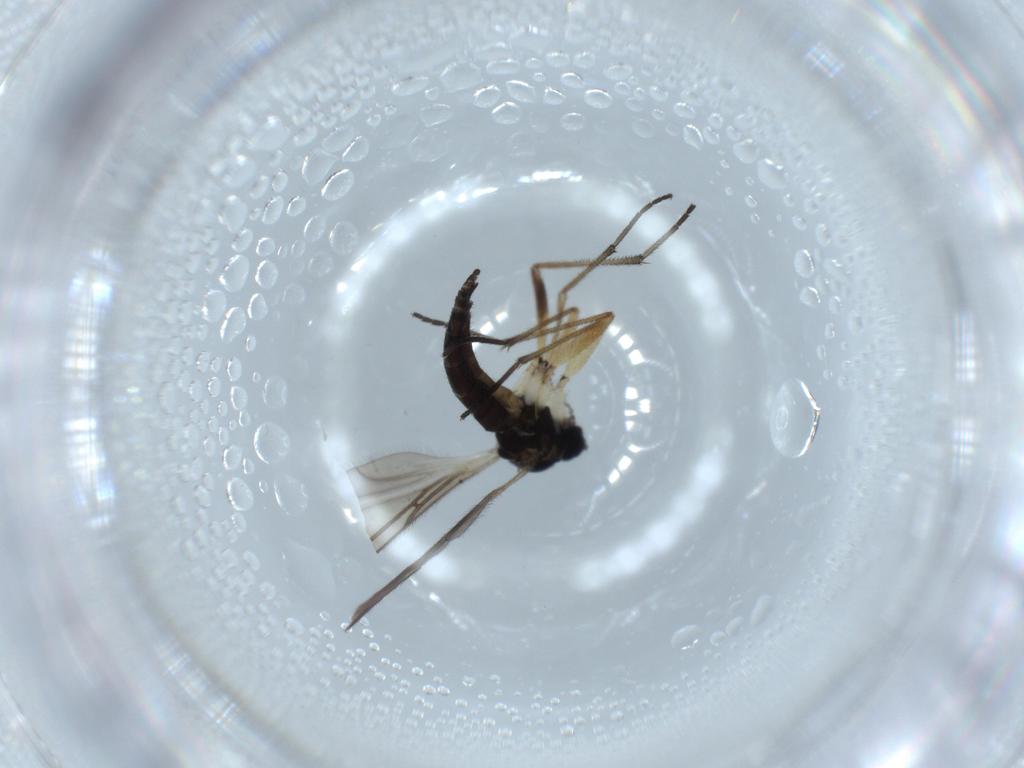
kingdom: Animalia
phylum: Arthropoda
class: Insecta
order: Diptera
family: Sciaridae
